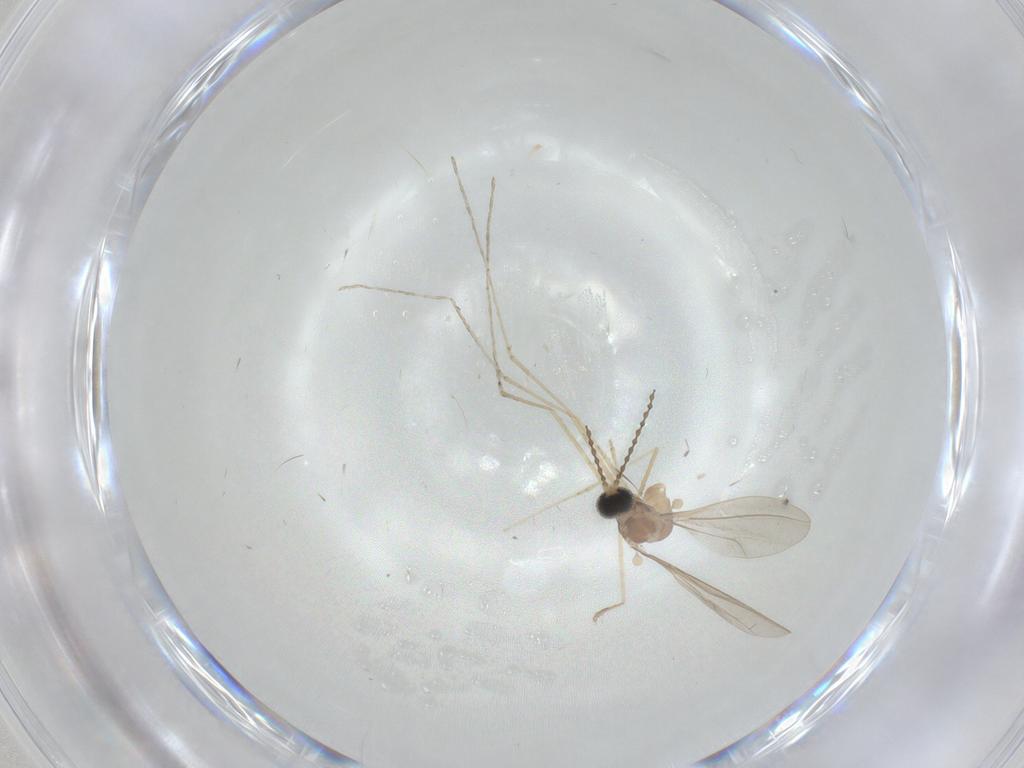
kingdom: Animalia
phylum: Arthropoda
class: Insecta
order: Diptera
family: Cecidomyiidae
